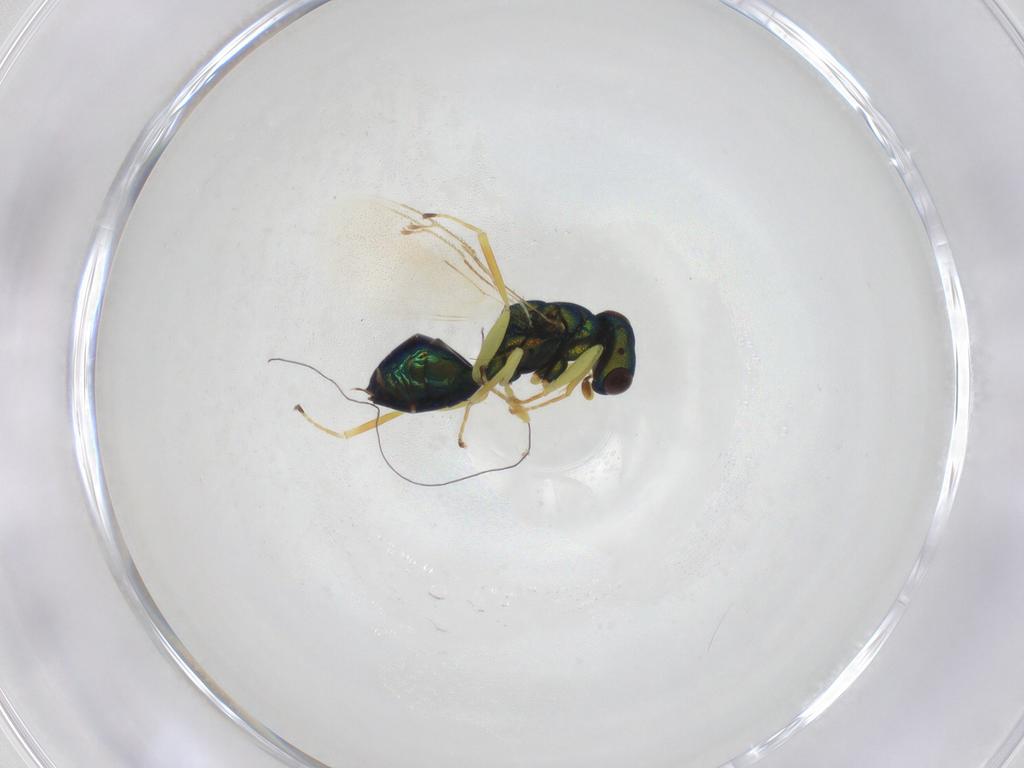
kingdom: Animalia
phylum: Arthropoda
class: Insecta
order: Hymenoptera
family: Pteromalidae
